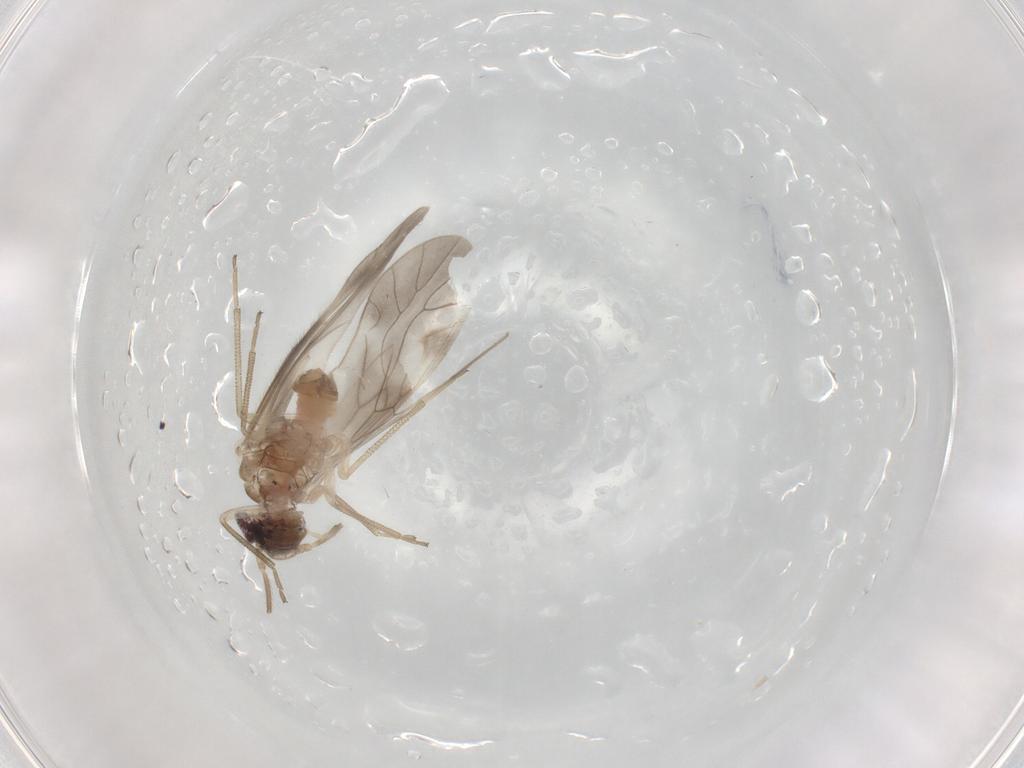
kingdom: Animalia
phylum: Arthropoda
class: Insecta
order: Psocodea
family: Caeciliusidae
